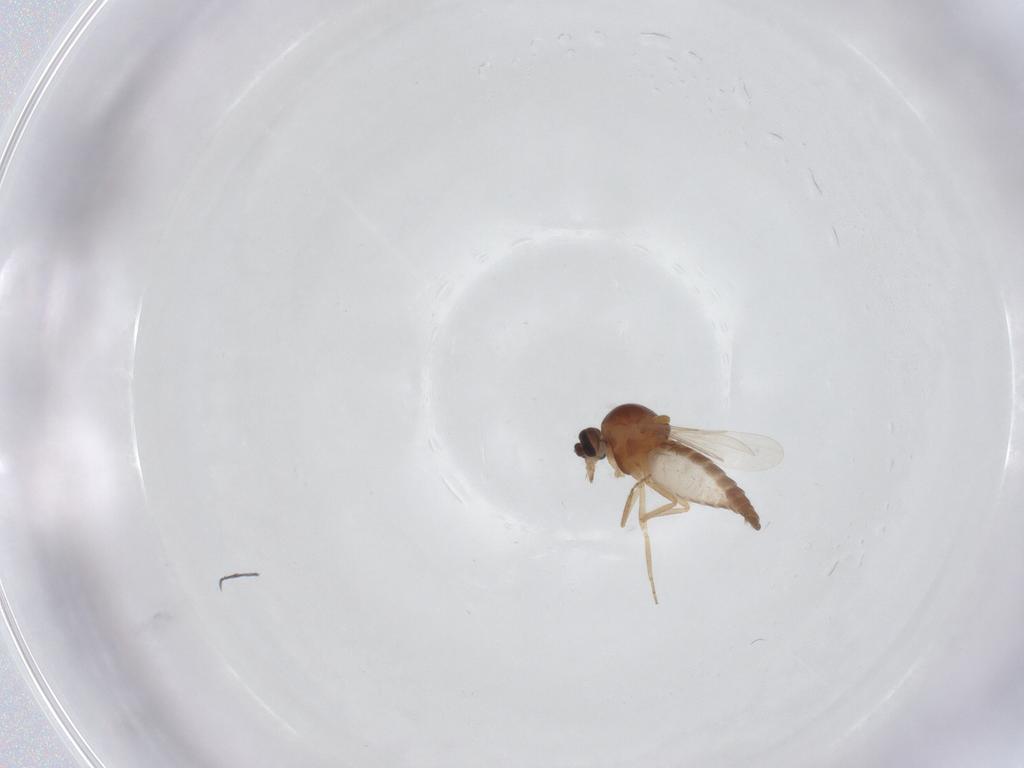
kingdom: Animalia
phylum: Arthropoda
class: Insecta
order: Diptera
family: Ceratopogonidae
